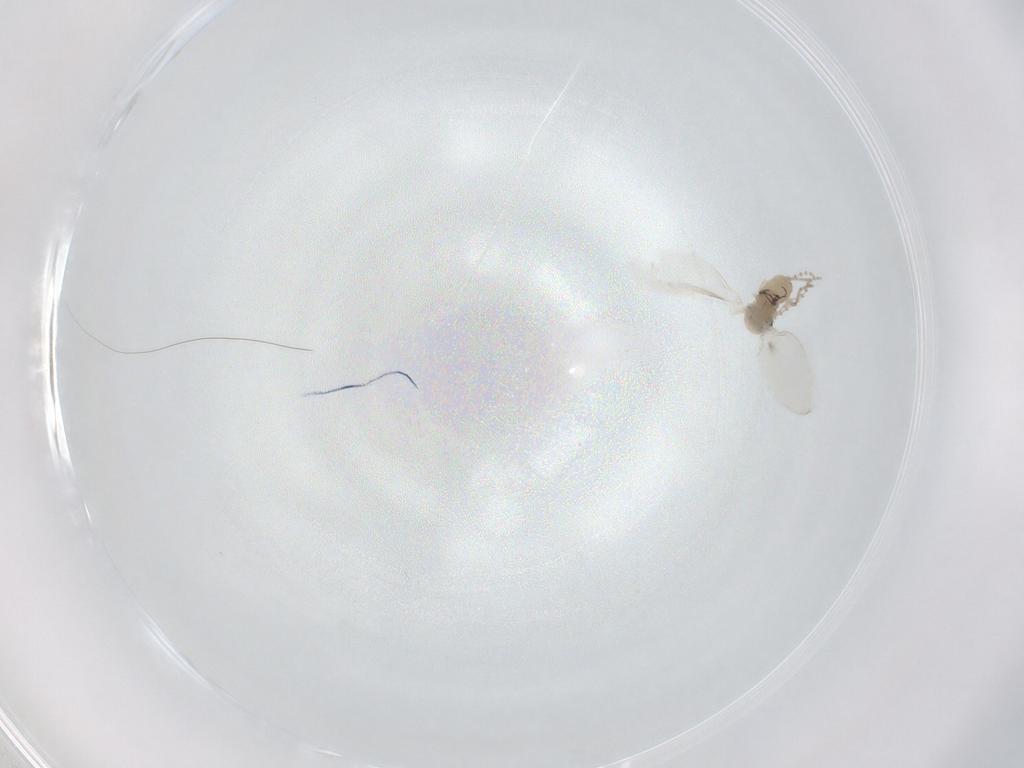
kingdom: Animalia
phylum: Arthropoda
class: Insecta
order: Diptera
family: Psychodidae
